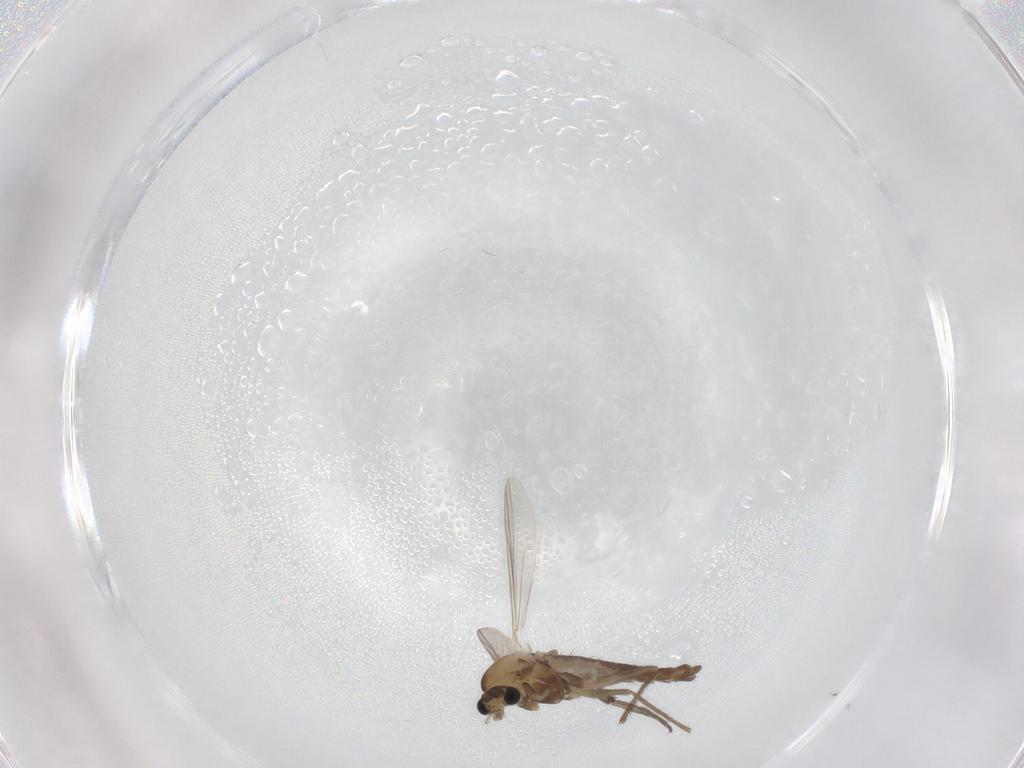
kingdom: Animalia
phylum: Arthropoda
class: Insecta
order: Diptera
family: Chironomidae
